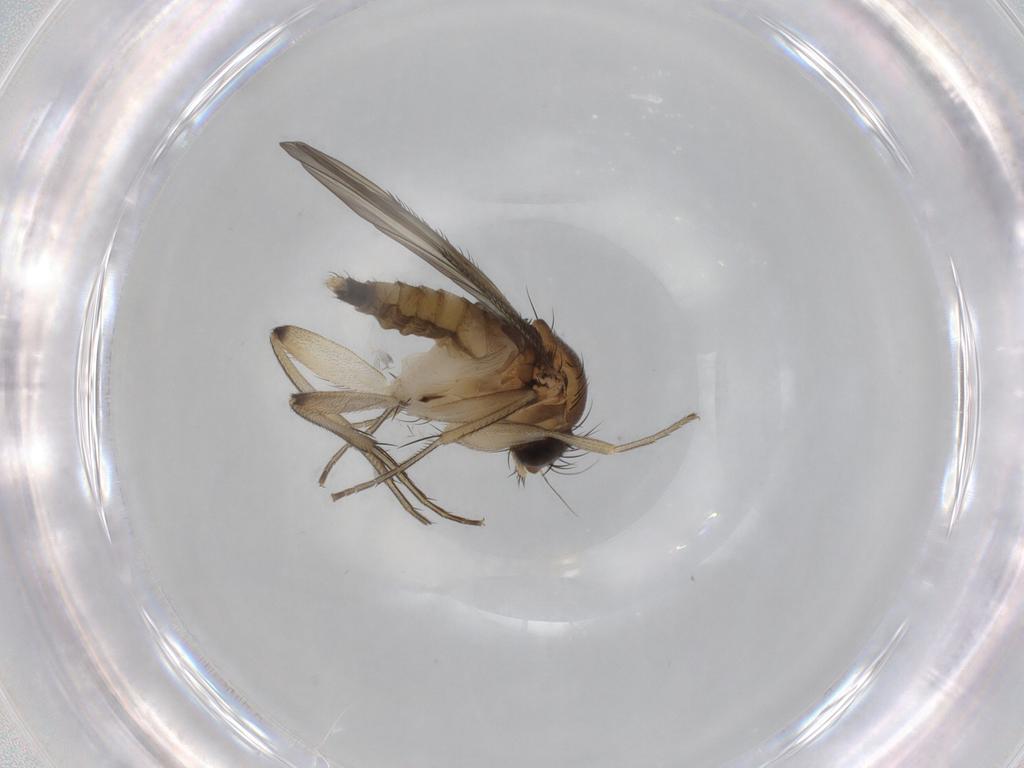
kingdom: Animalia
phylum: Arthropoda
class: Insecta
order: Diptera
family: Phoridae
